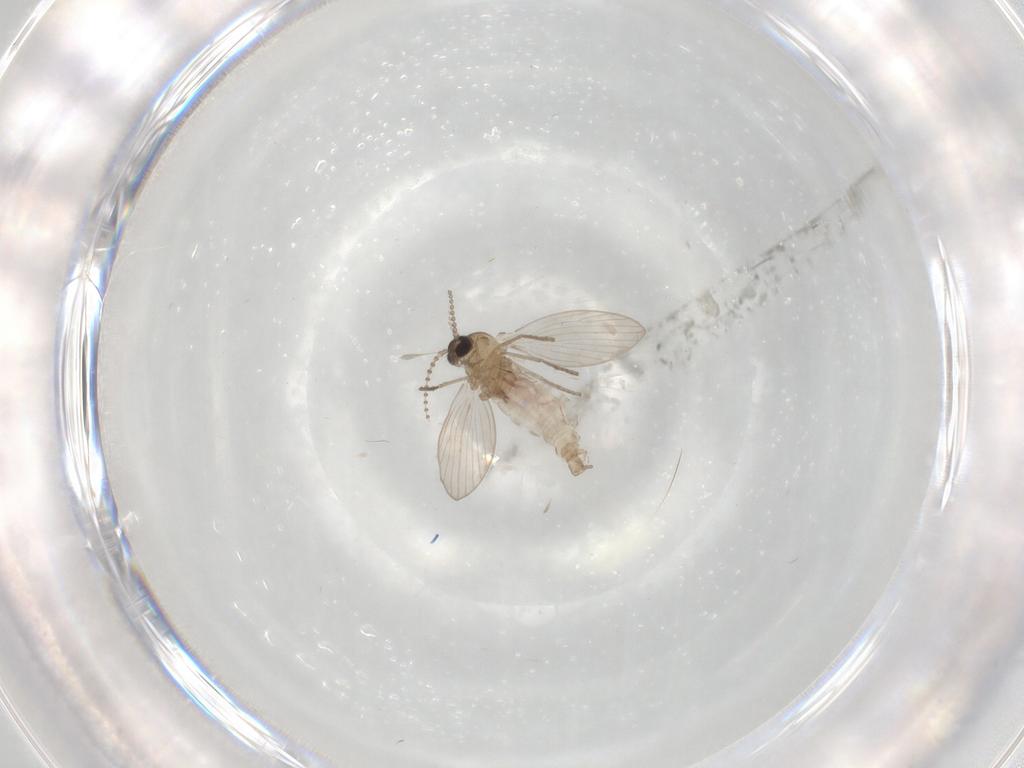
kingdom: Animalia
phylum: Arthropoda
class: Insecta
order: Diptera
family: Psychodidae
